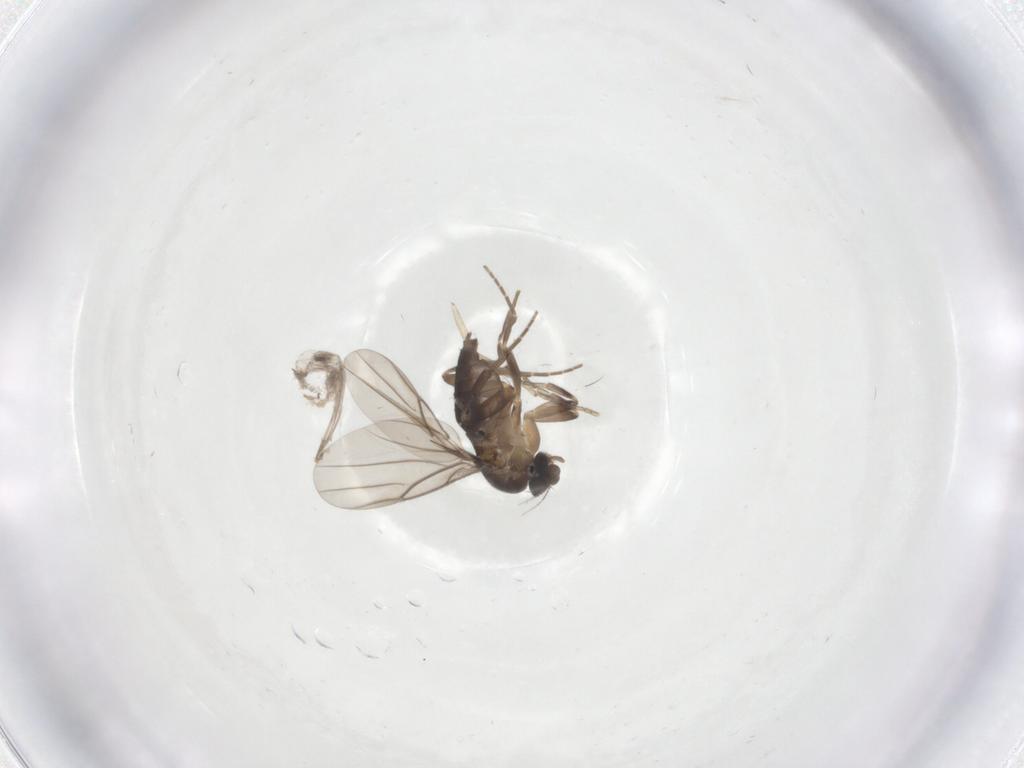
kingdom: Animalia
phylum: Arthropoda
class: Insecta
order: Diptera
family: Phoridae
